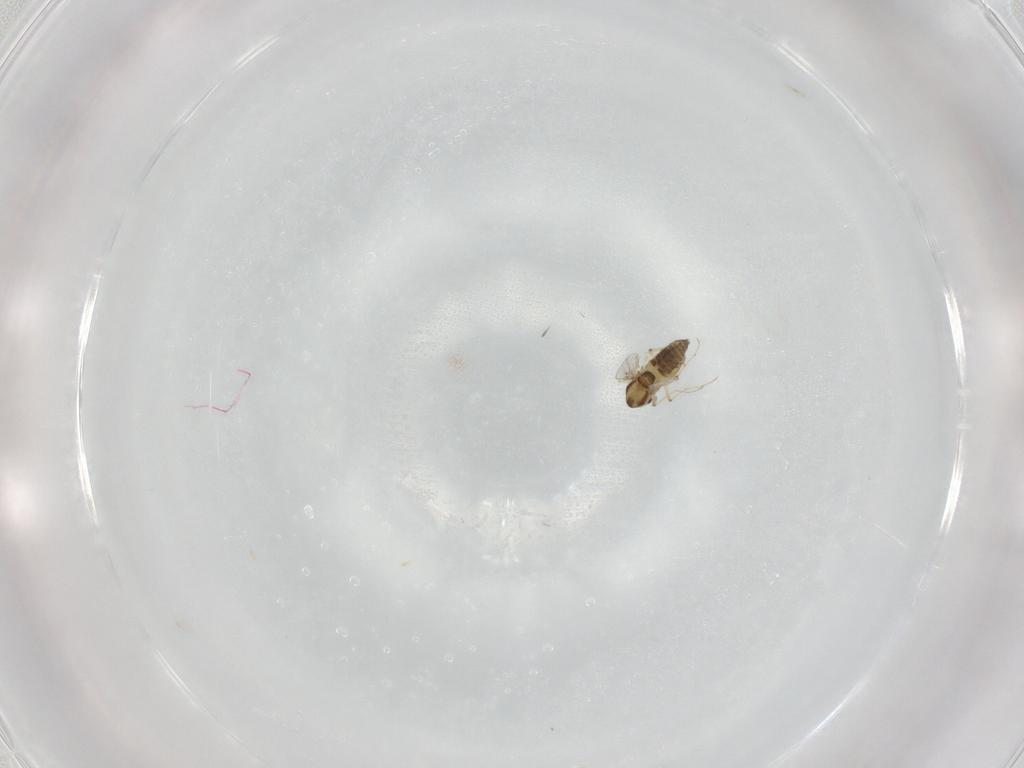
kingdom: Animalia
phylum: Arthropoda
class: Insecta
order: Diptera
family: Chironomidae
